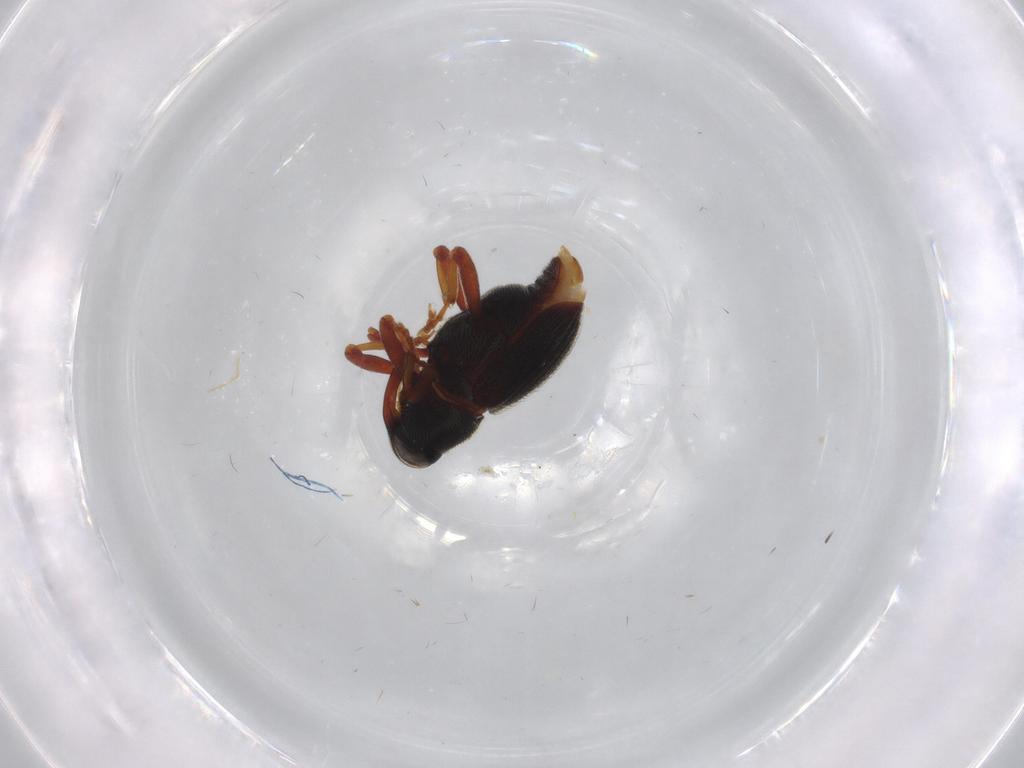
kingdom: Animalia
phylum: Arthropoda
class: Insecta
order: Coleoptera
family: Curculionidae
